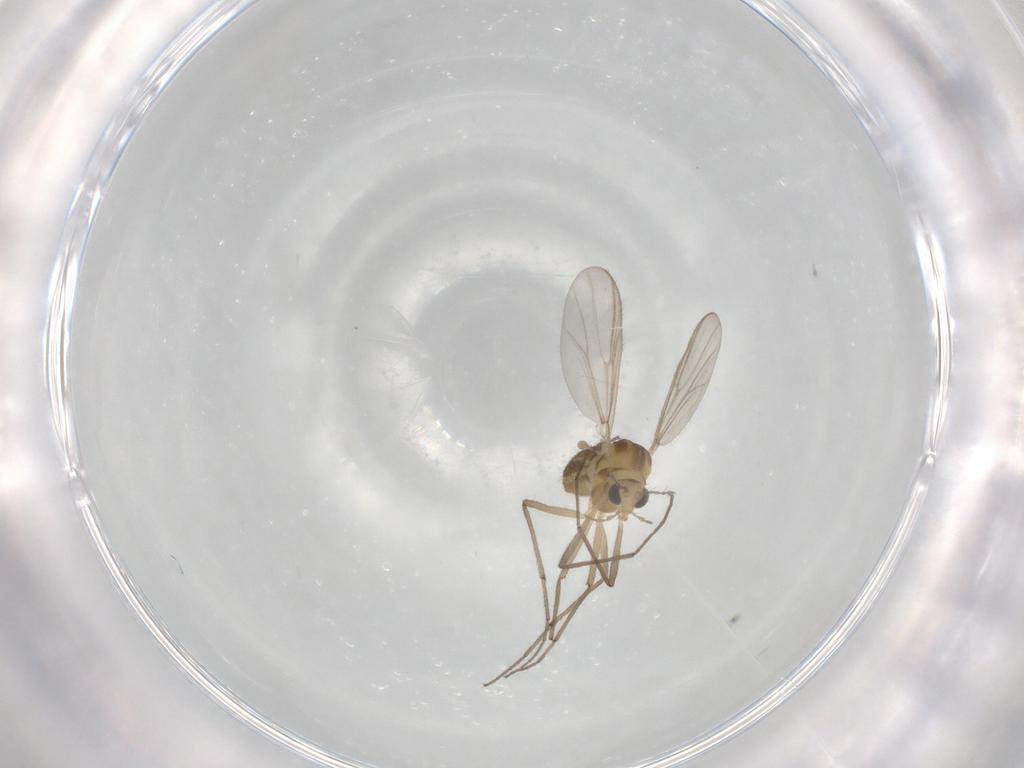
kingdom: Animalia
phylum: Arthropoda
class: Insecta
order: Diptera
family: Chironomidae
